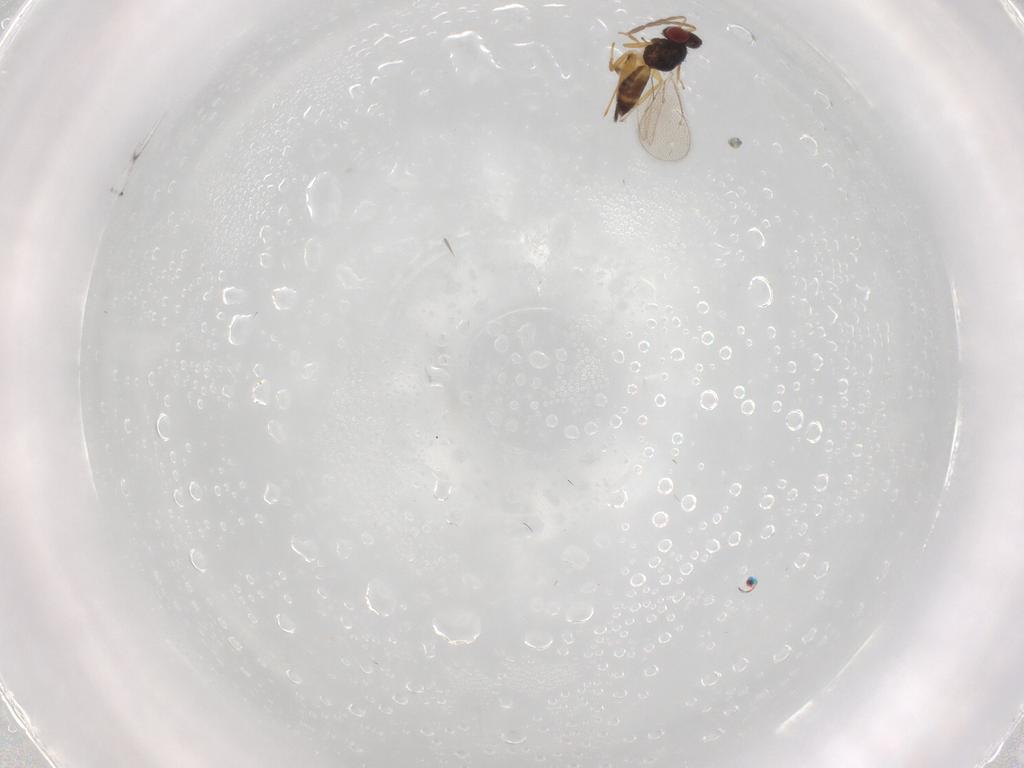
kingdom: Animalia
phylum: Arthropoda
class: Insecta
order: Hymenoptera
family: Eulophidae
